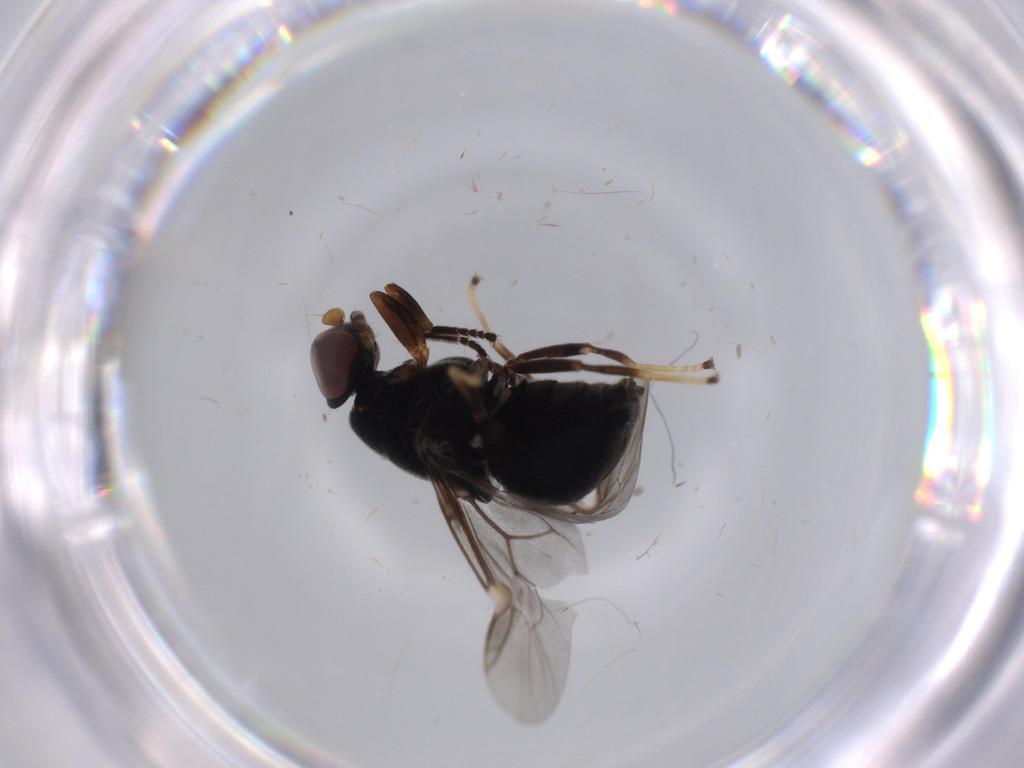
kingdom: Animalia
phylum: Arthropoda
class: Insecta
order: Diptera
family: Stratiomyidae
